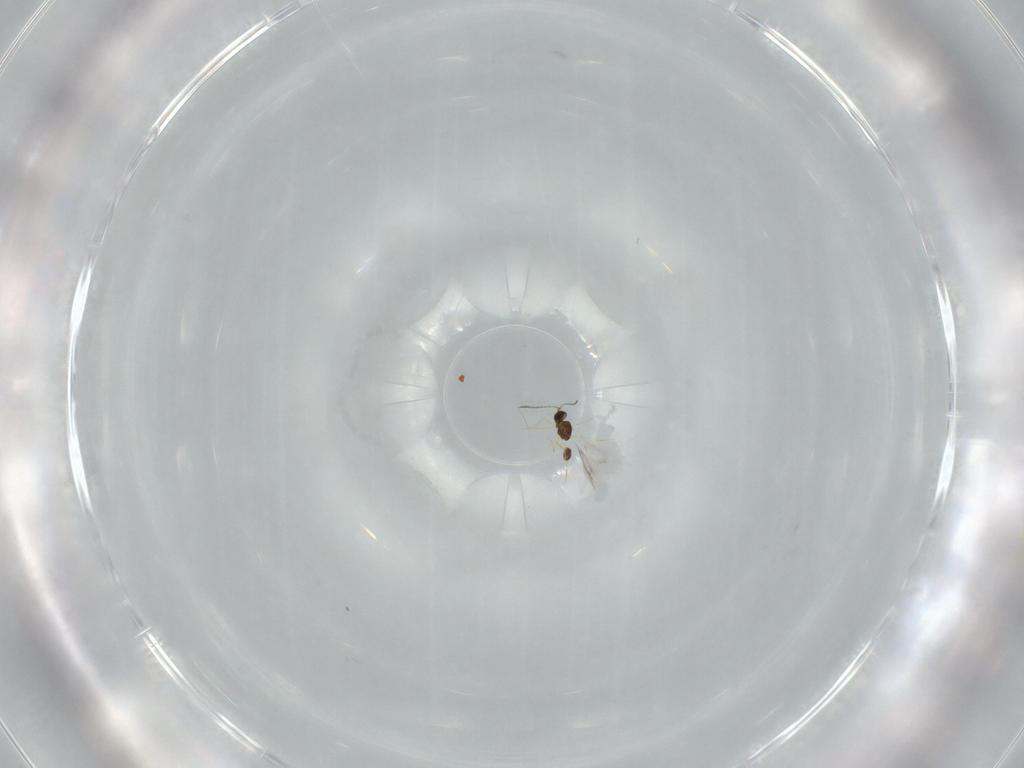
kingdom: Animalia
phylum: Arthropoda
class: Insecta
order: Hymenoptera
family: Mymarommatidae
